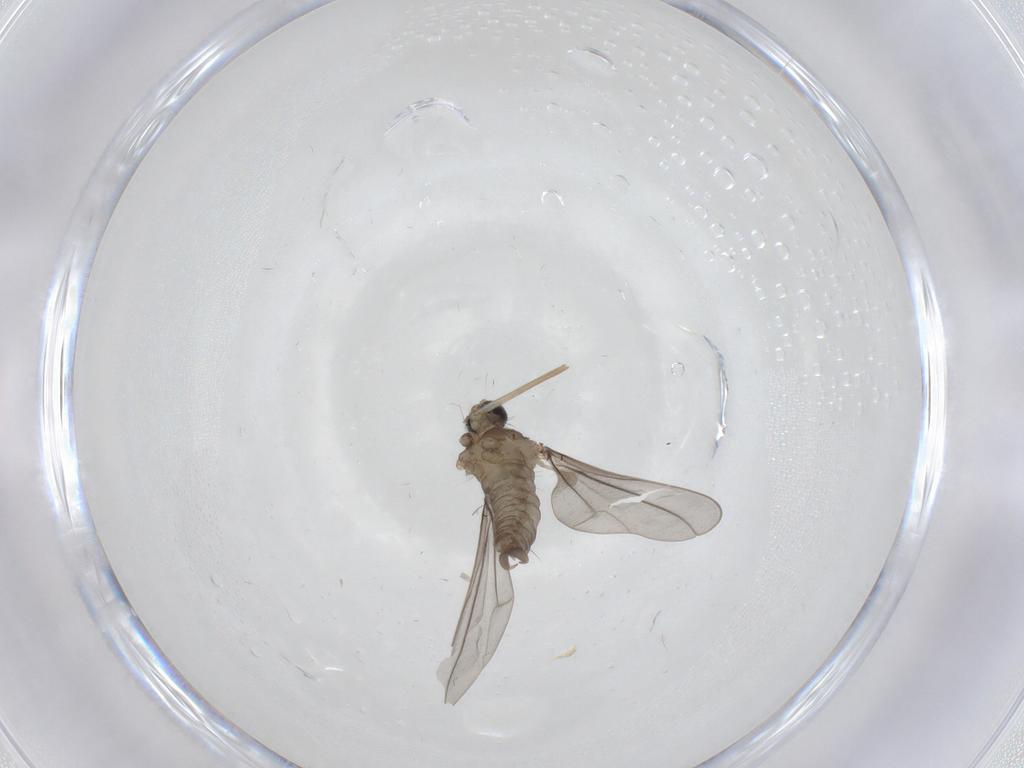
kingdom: Animalia
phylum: Arthropoda
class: Insecta
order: Diptera
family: Cecidomyiidae
